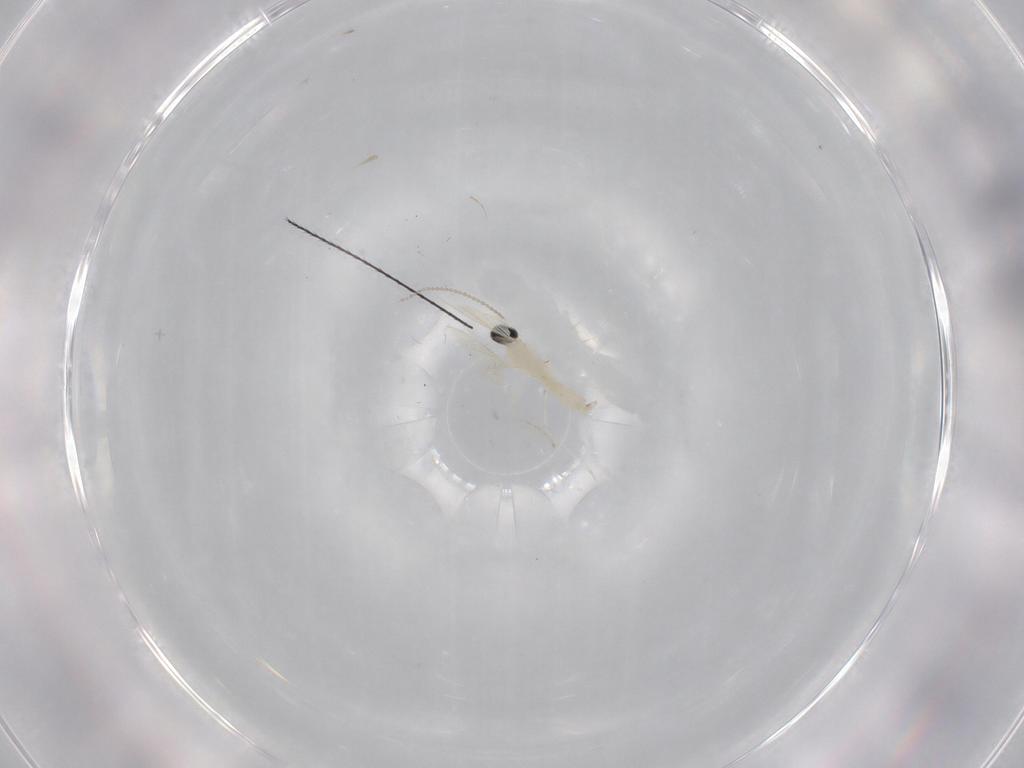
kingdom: Animalia
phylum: Arthropoda
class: Insecta
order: Diptera
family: Cecidomyiidae
